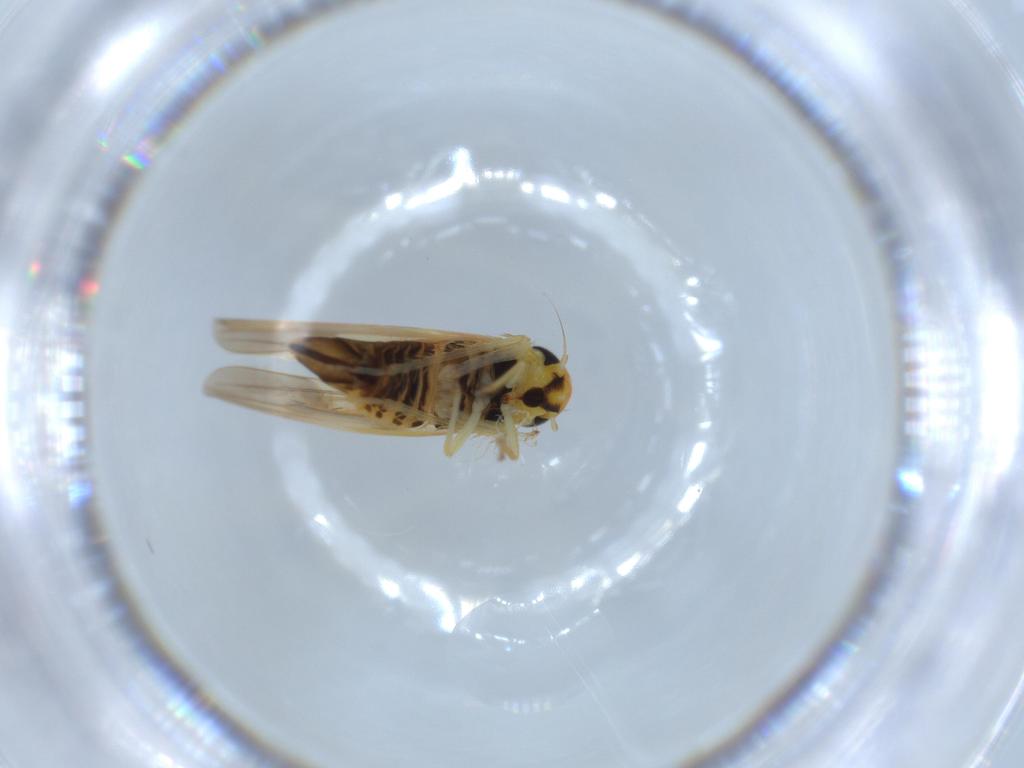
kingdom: Animalia
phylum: Arthropoda
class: Insecta
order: Hemiptera
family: Cicadellidae
